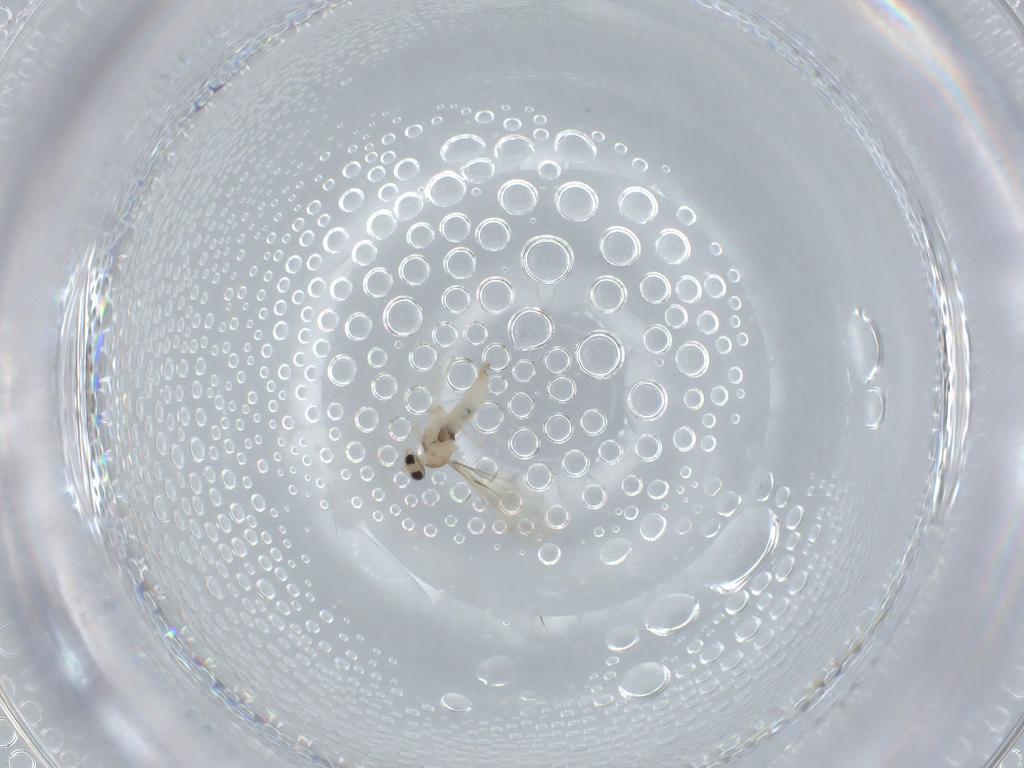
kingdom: Animalia
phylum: Arthropoda
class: Insecta
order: Diptera
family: Cecidomyiidae
